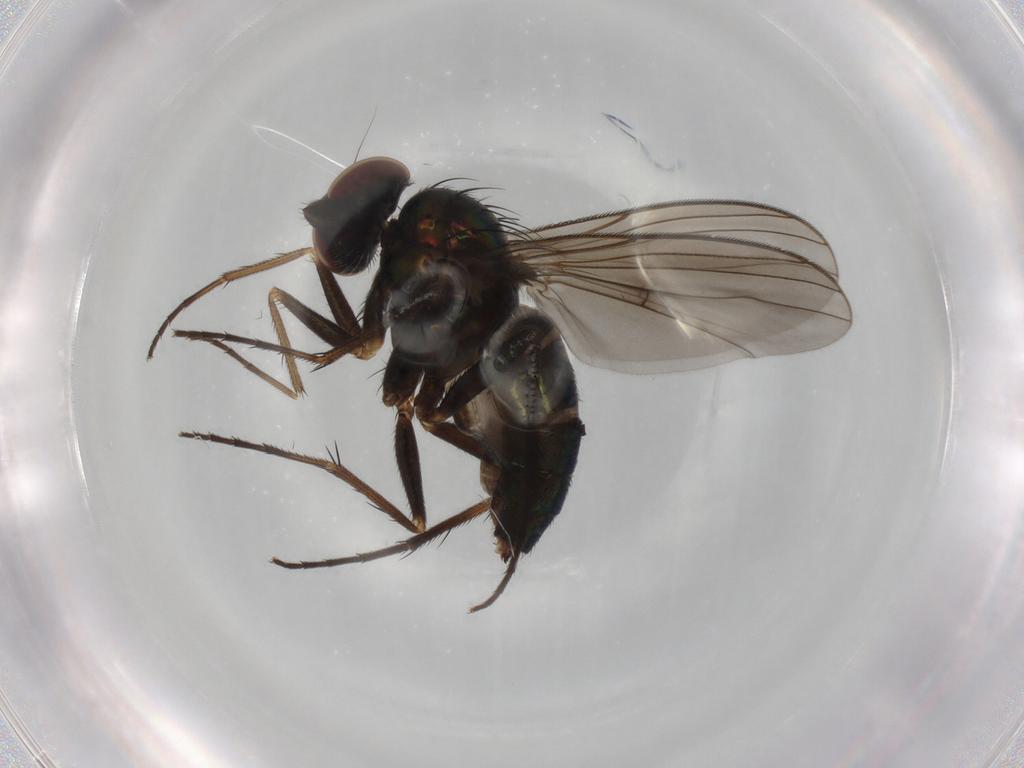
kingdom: Animalia
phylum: Arthropoda
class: Insecta
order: Diptera
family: Dolichopodidae
